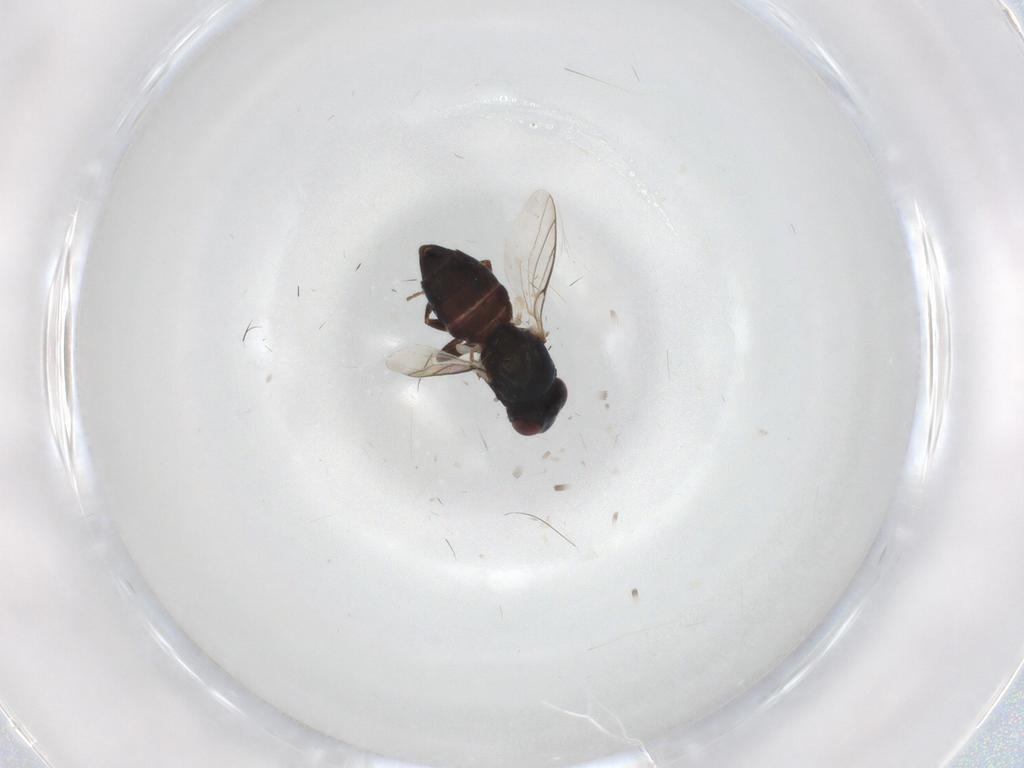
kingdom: Animalia
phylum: Arthropoda
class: Insecta
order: Diptera
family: Chloropidae
